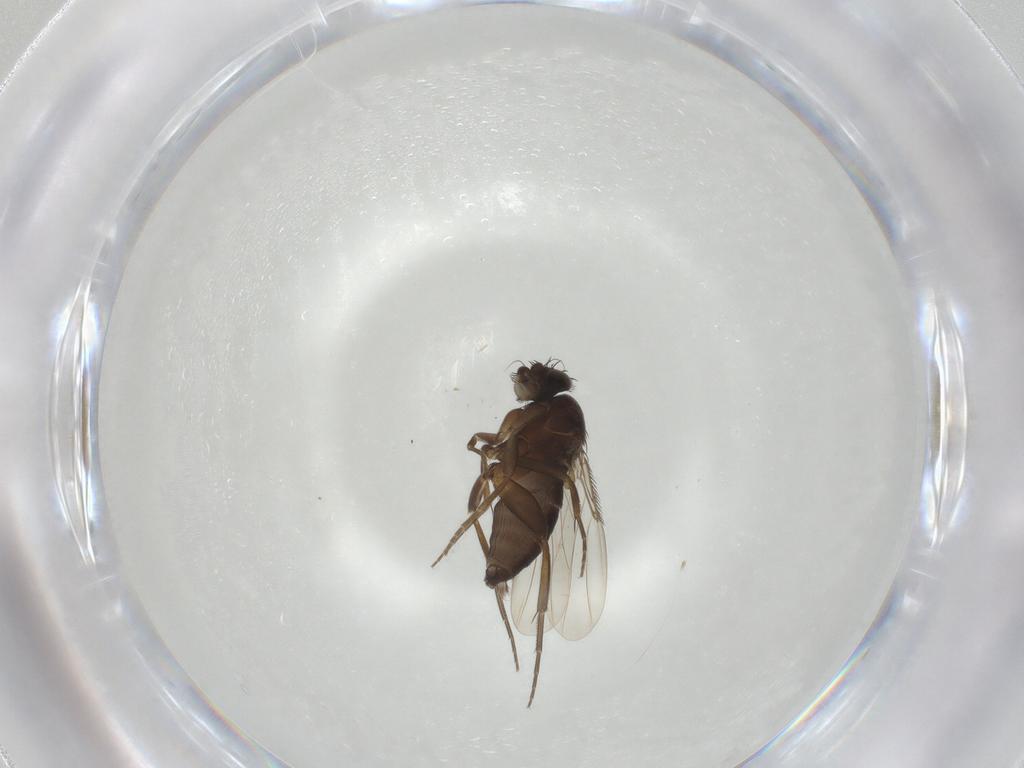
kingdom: Animalia
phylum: Arthropoda
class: Insecta
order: Diptera
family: Phoridae
